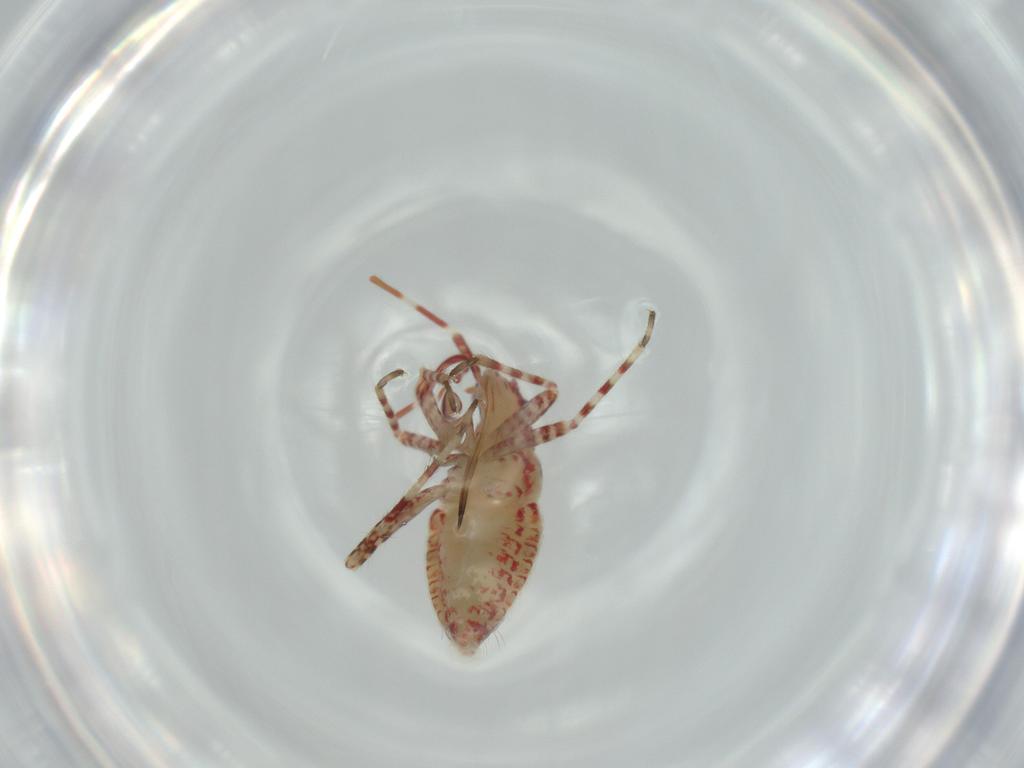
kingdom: Animalia
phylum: Arthropoda
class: Insecta
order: Hemiptera
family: Miridae
